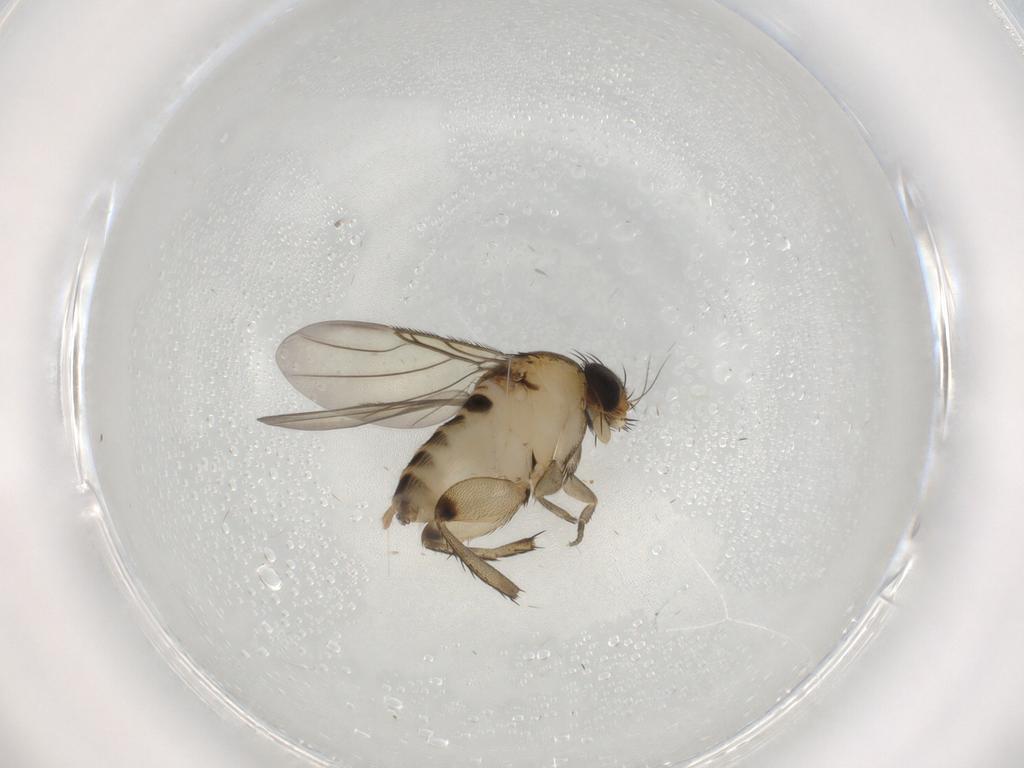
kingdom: Animalia
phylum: Arthropoda
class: Insecta
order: Diptera
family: Phoridae
